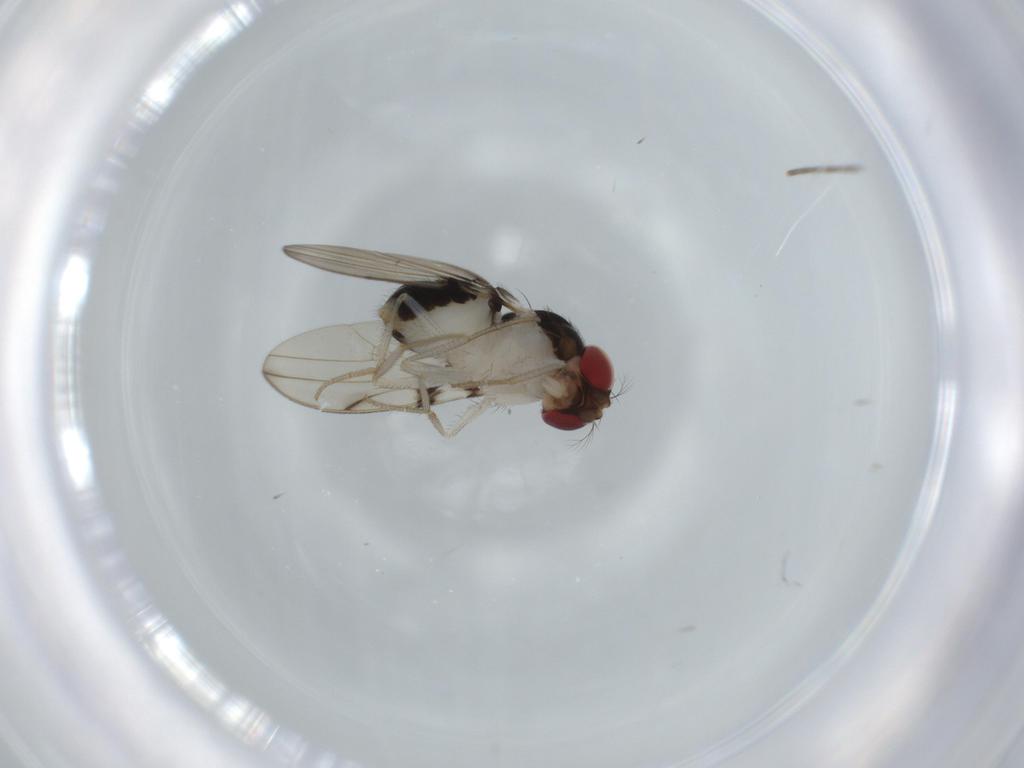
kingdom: Animalia
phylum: Arthropoda
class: Insecta
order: Diptera
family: Drosophilidae
